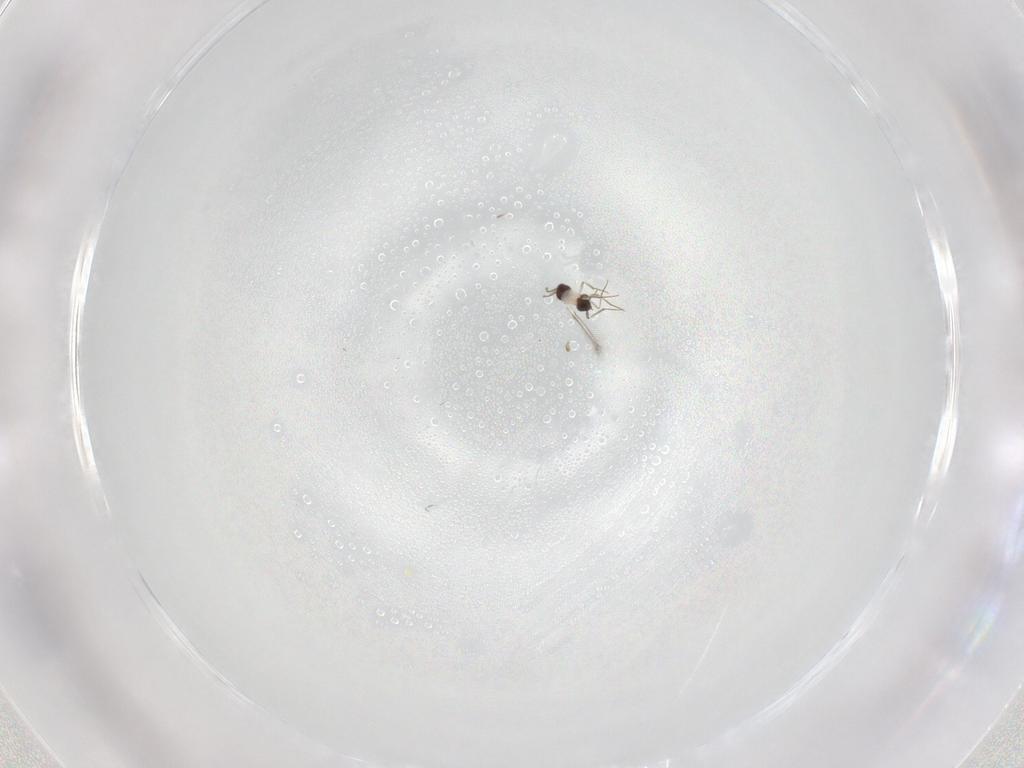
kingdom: Animalia
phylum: Arthropoda
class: Insecta
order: Hymenoptera
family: Mymaridae
